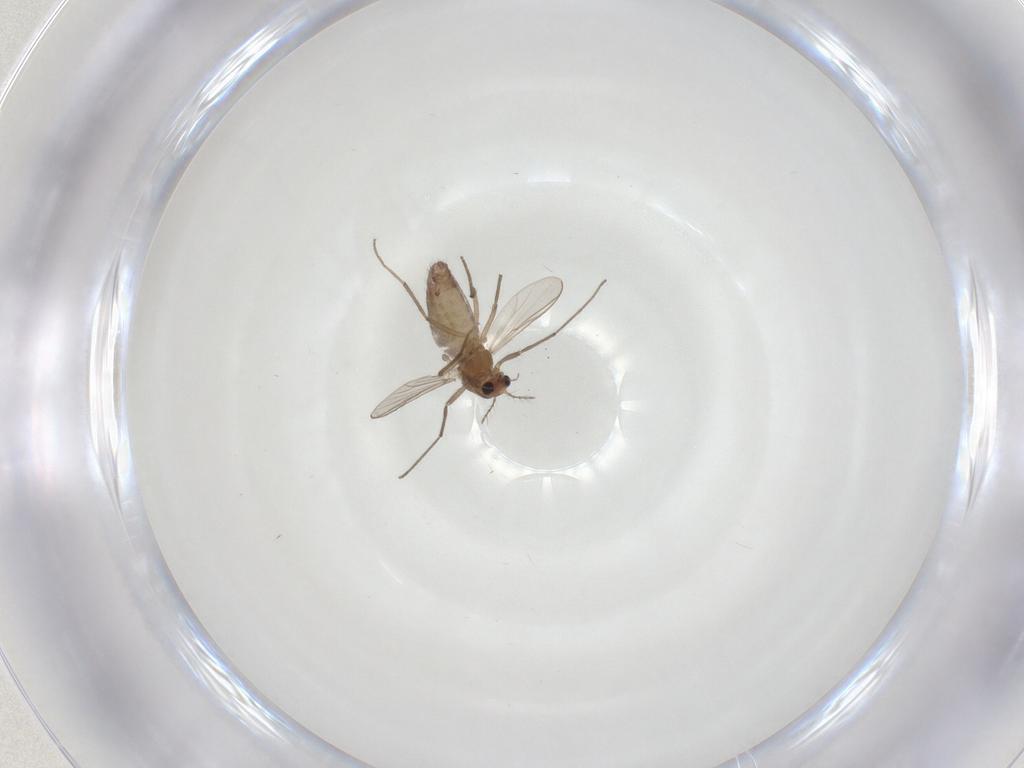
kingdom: Animalia
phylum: Arthropoda
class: Insecta
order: Diptera
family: Chironomidae
